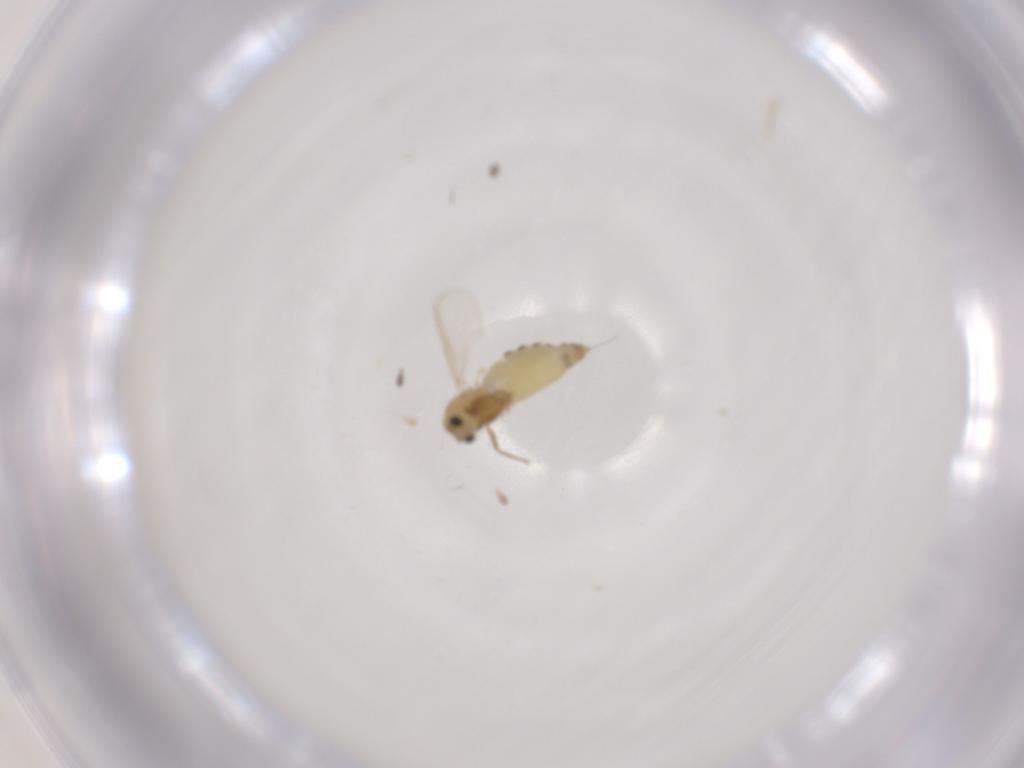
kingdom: Animalia
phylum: Arthropoda
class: Insecta
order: Diptera
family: Chironomidae
